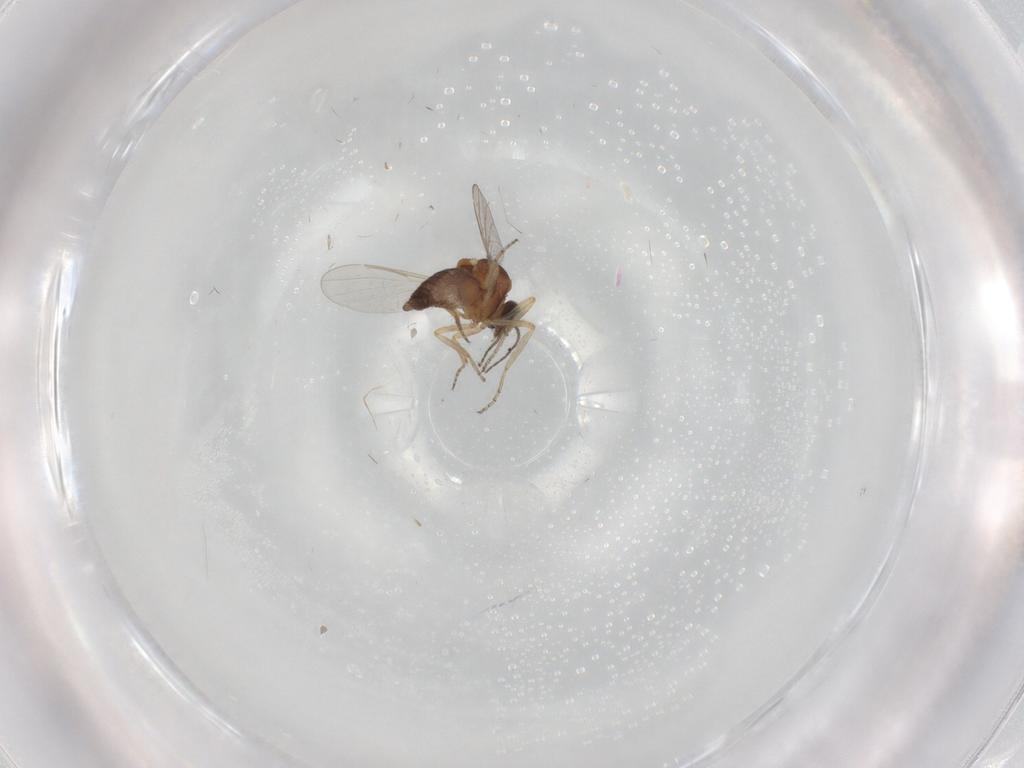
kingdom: Animalia
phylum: Arthropoda
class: Insecta
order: Diptera
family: Ceratopogonidae
